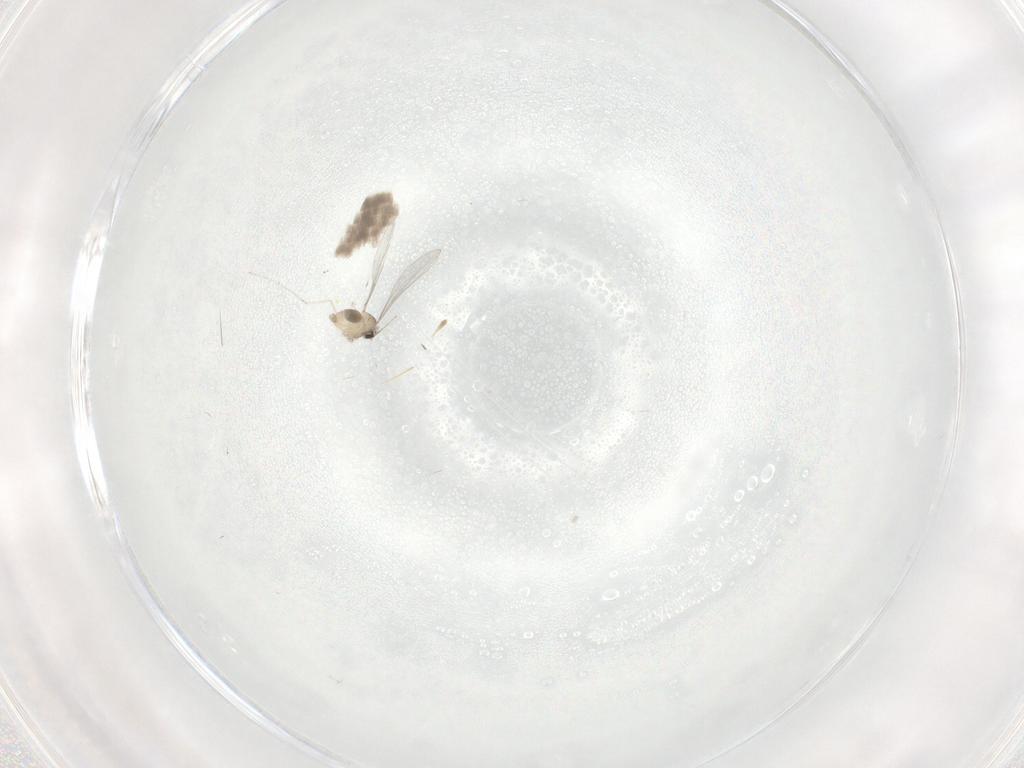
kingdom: Animalia
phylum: Arthropoda
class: Insecta
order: Diptera
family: Cecidomyiidae
